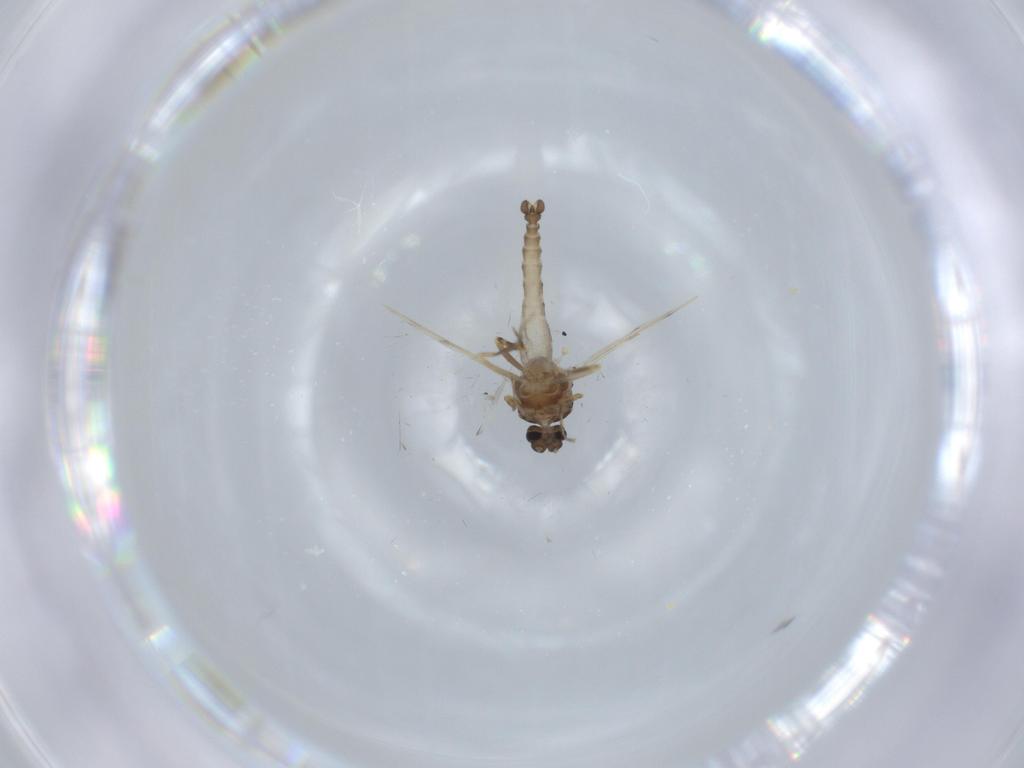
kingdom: Animalia
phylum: Arthropoda
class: Insecta
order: Diptera
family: Ceratopogonidae
